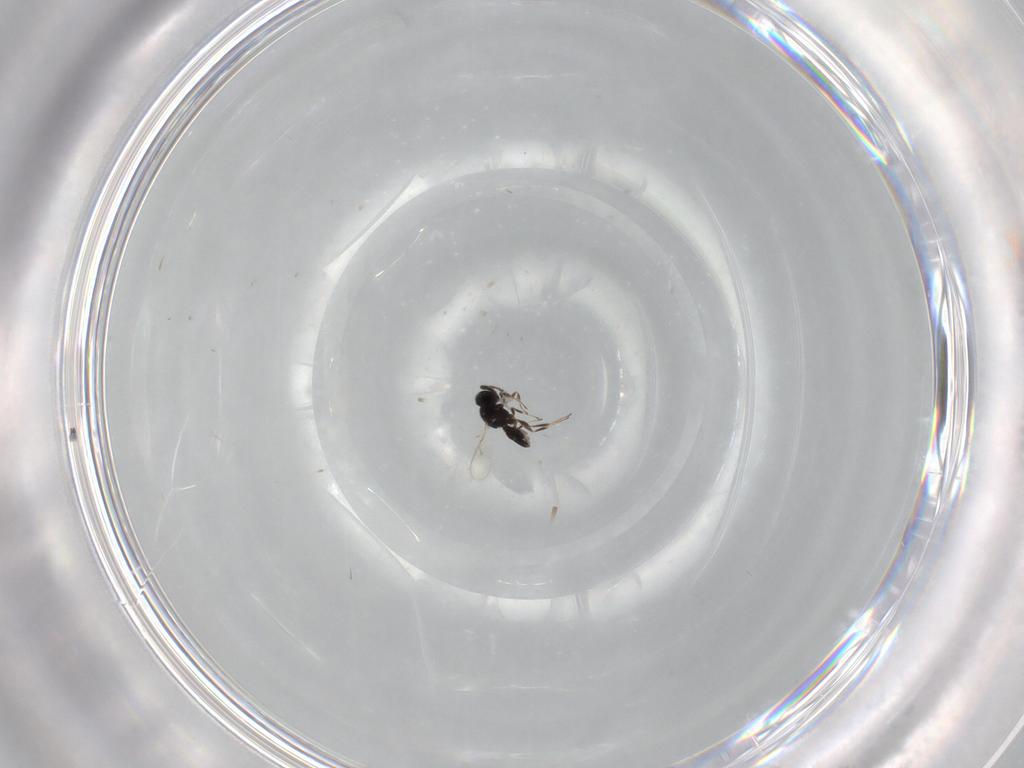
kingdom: Animalia
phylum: Arthropoda
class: Insecta
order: Hymenoptera
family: Scelionidae
